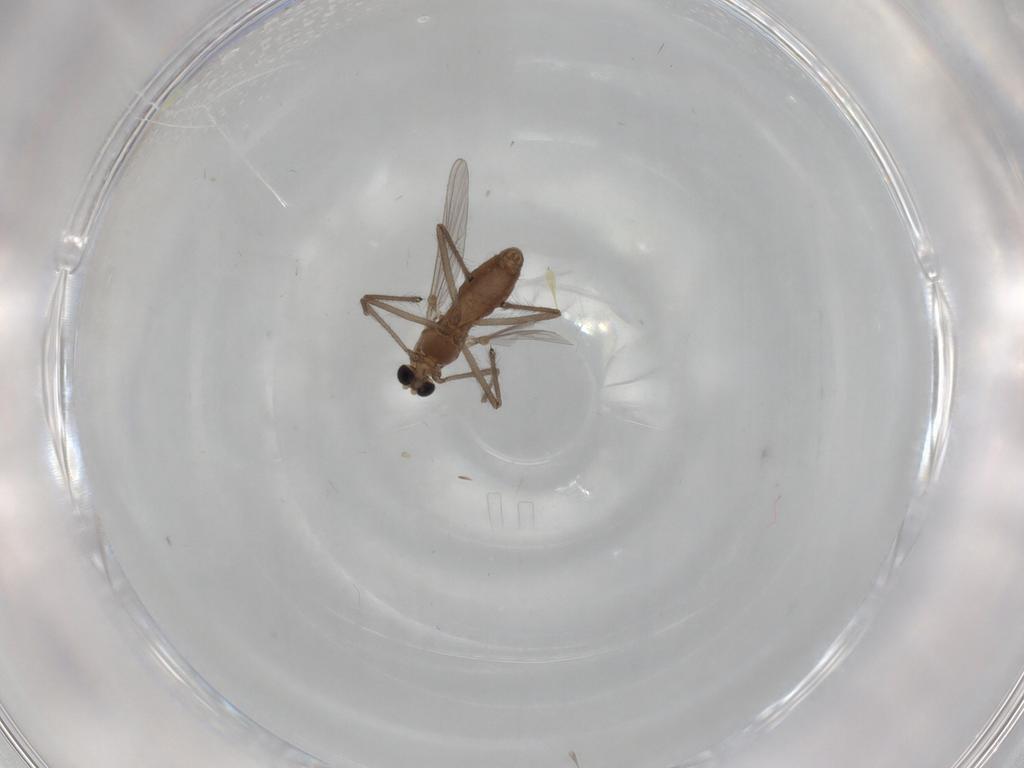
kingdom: Animalia
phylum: Arthropoda
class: Insecta
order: Diptera
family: Chironomidae
